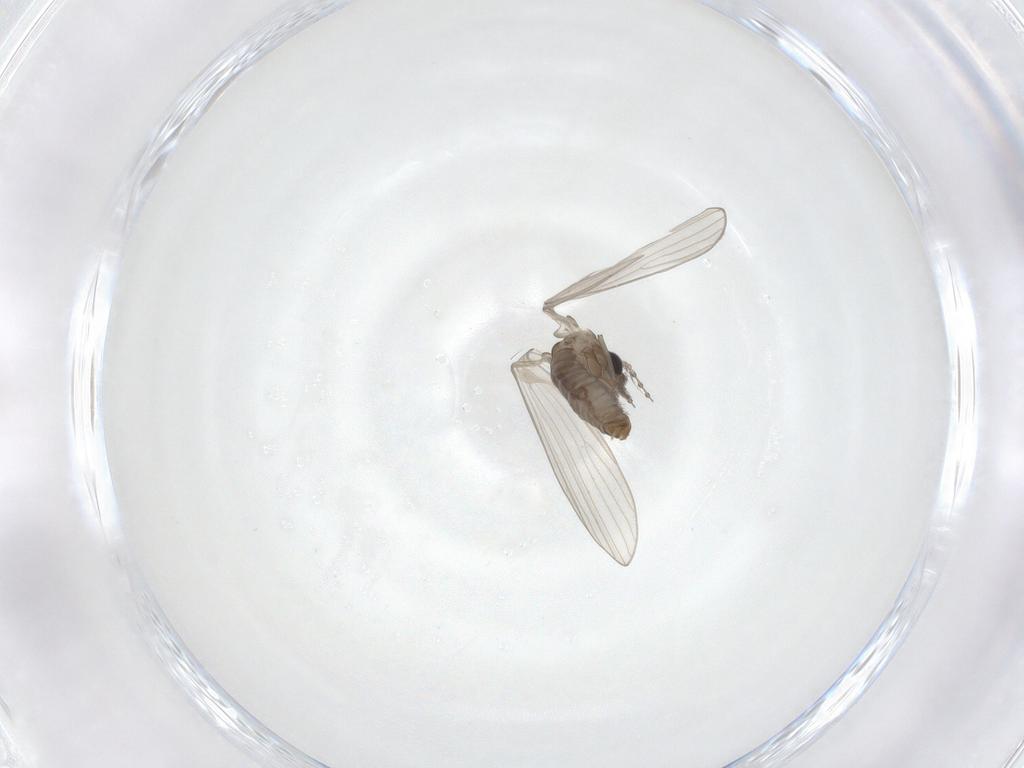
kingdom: Animalia
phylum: Arthropoda
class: Insecta
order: Diptera
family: Psychodidae
